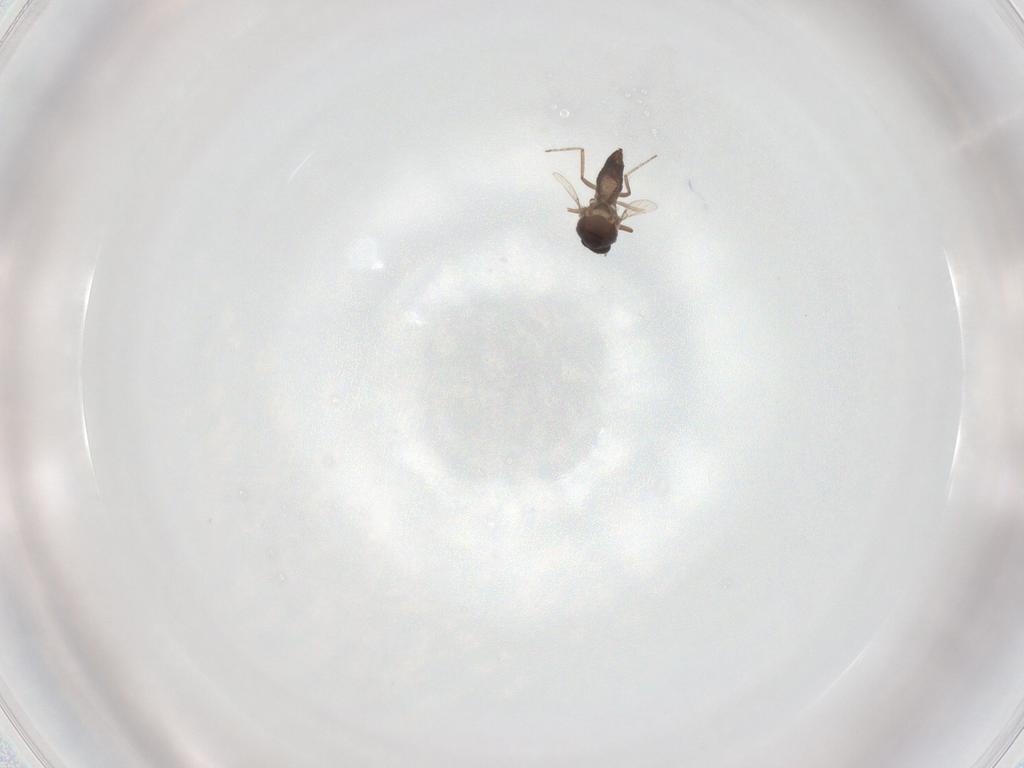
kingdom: Animalia
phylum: Arthropoda
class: Insecta
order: Diptera
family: Ceratopogonidae
